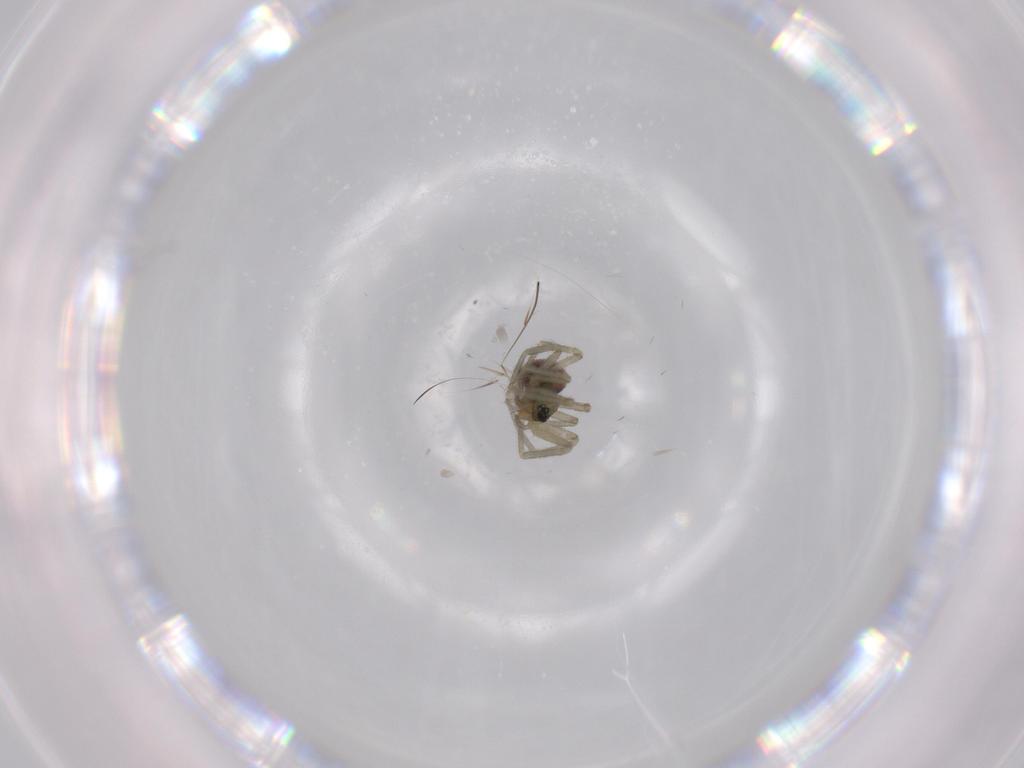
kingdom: Animalia
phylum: Arthropoda
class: Arachnida
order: Araneae
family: Linyphiidae
